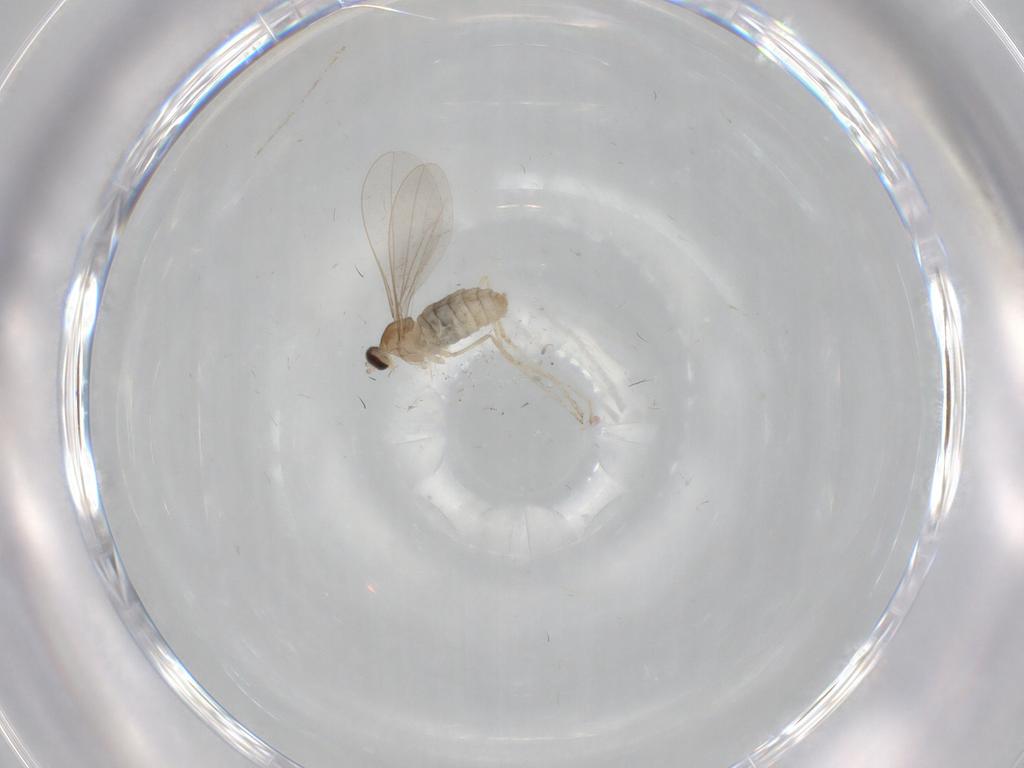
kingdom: Animalia
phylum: Arthropoda
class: Insecta
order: Diptera
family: Cecidomyiidae
